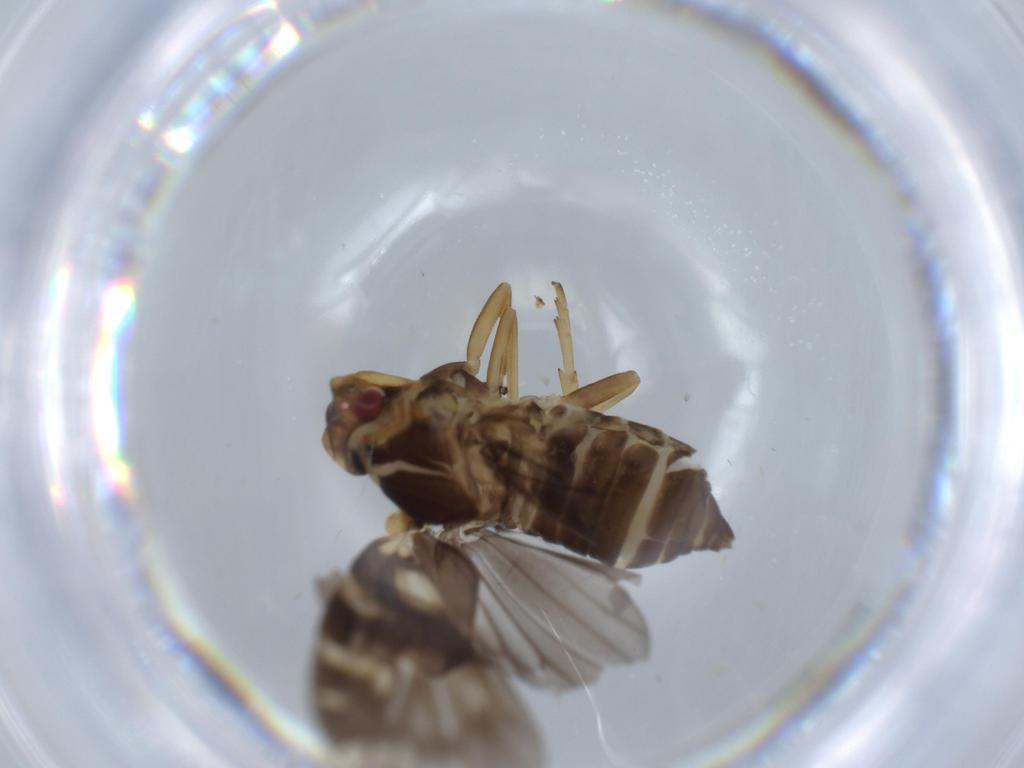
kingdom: Animalia
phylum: Arthropoda
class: Insecta
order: Hemiptera
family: Cixiidae
